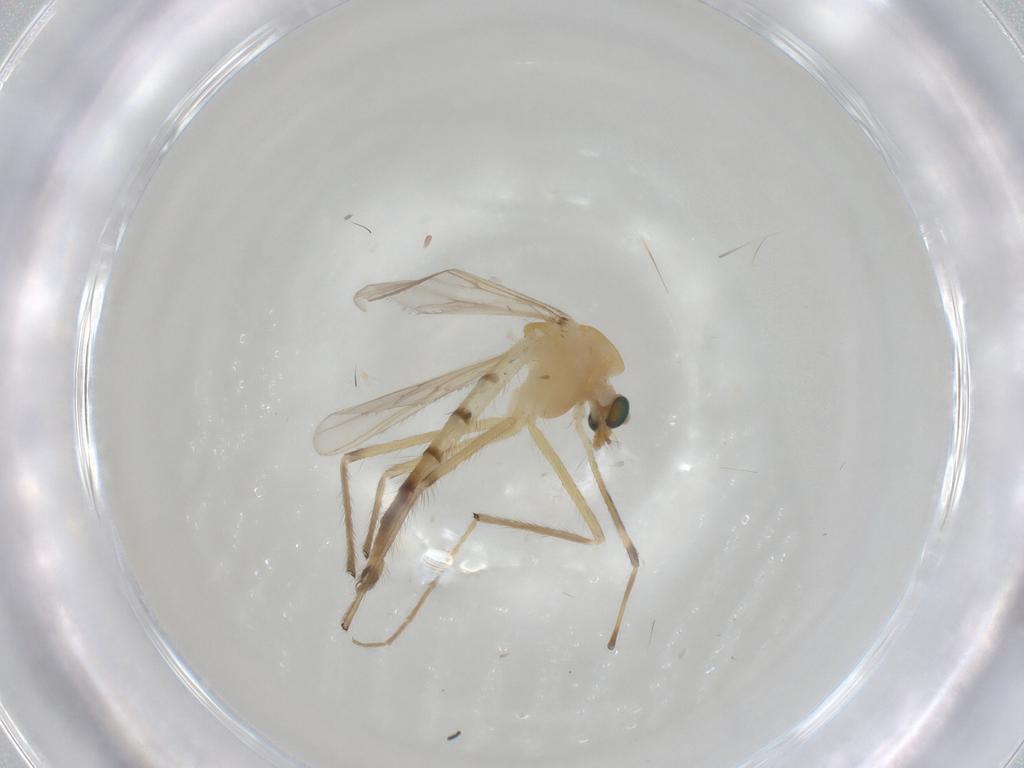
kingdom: Animalia
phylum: Arthropoda
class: Insecta
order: Diptera
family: Chironomidae
